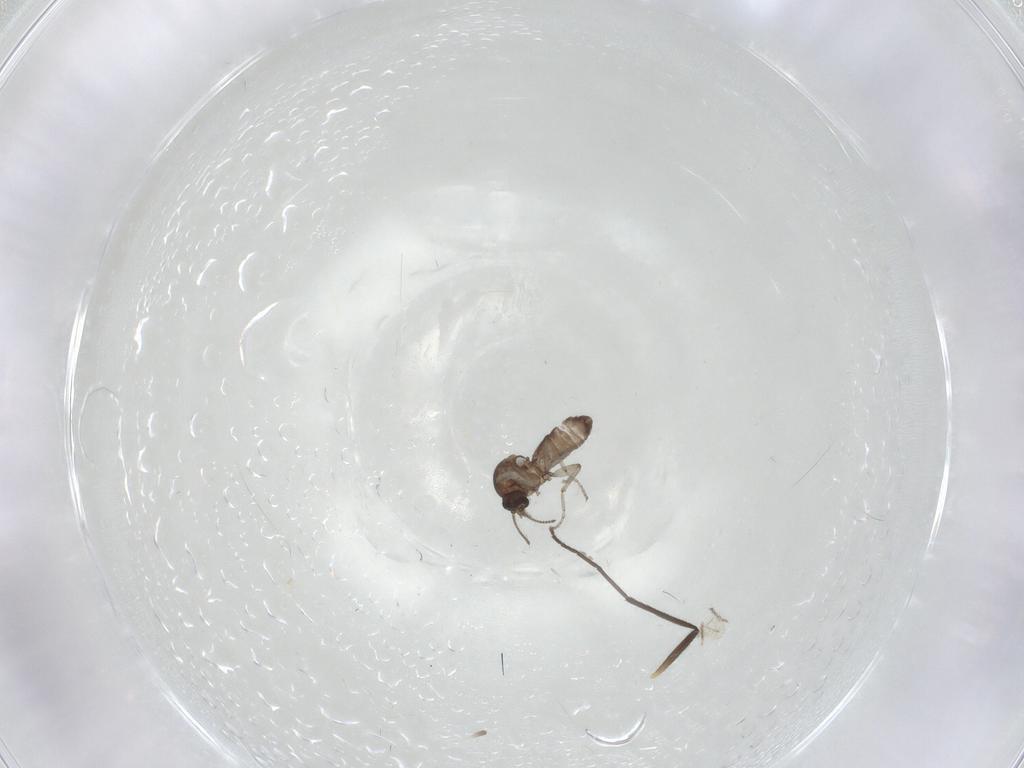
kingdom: Animalia
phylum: Arthropoda
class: Insecta
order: Diptera
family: Ceratopogonidae
